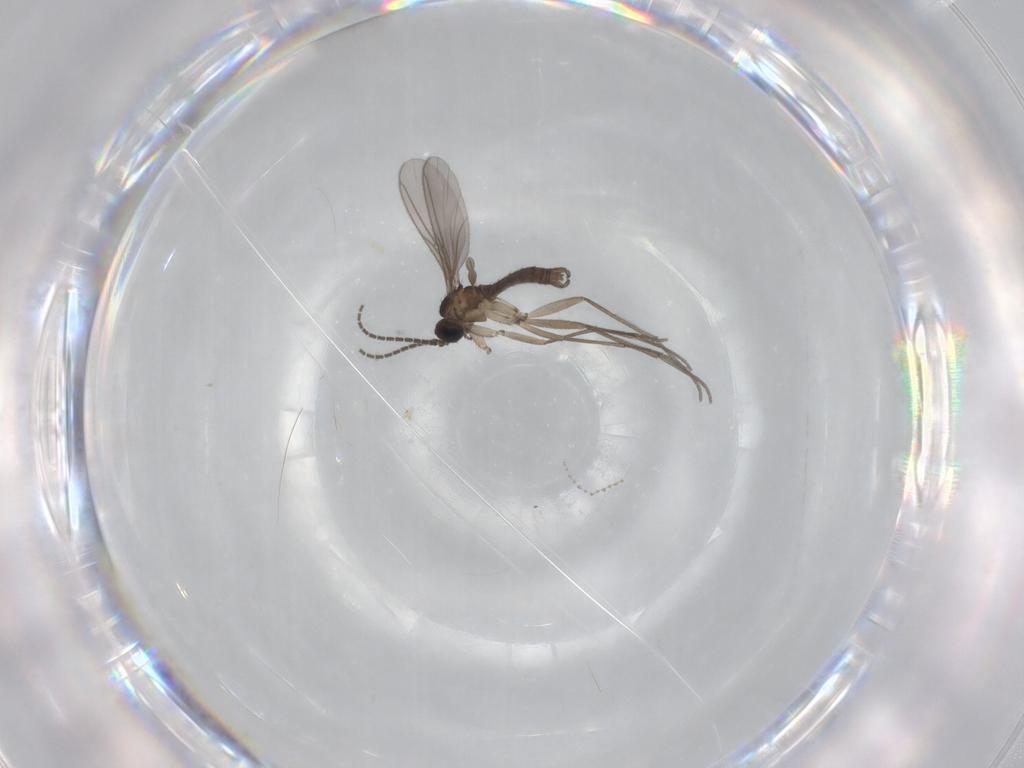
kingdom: Animalia
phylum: Arthropoda
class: Insecta
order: Diptera
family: Sciaridae
